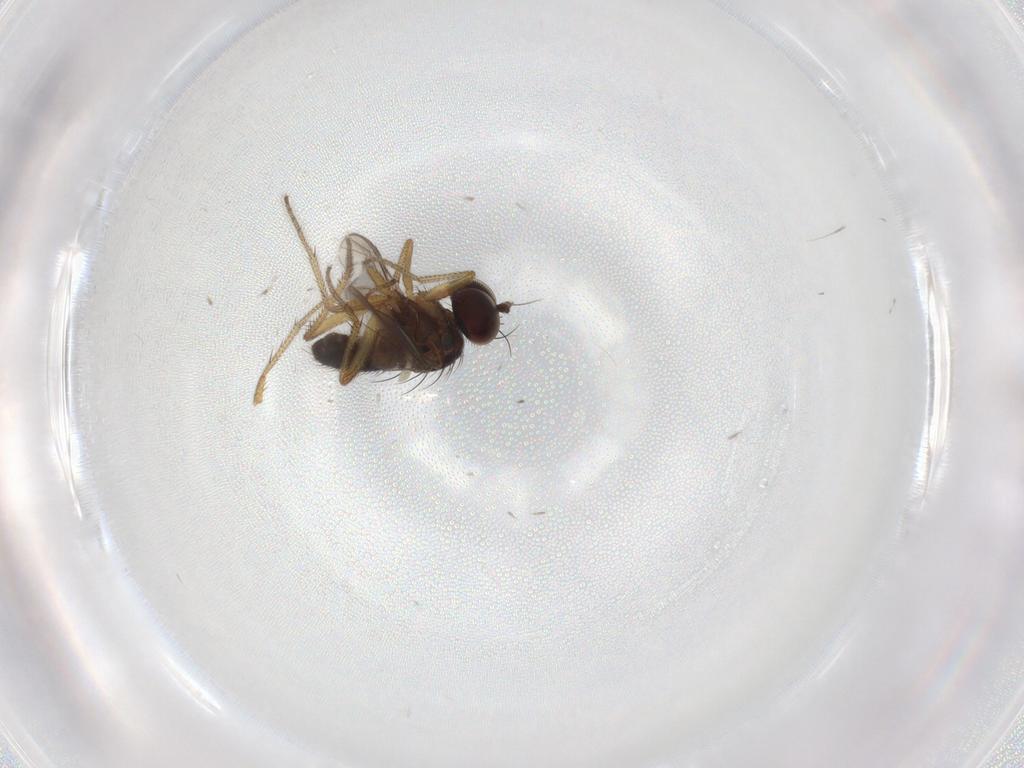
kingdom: Animalia
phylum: Arthropoda
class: Insecta
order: Diptera
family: Dolichopodidae
